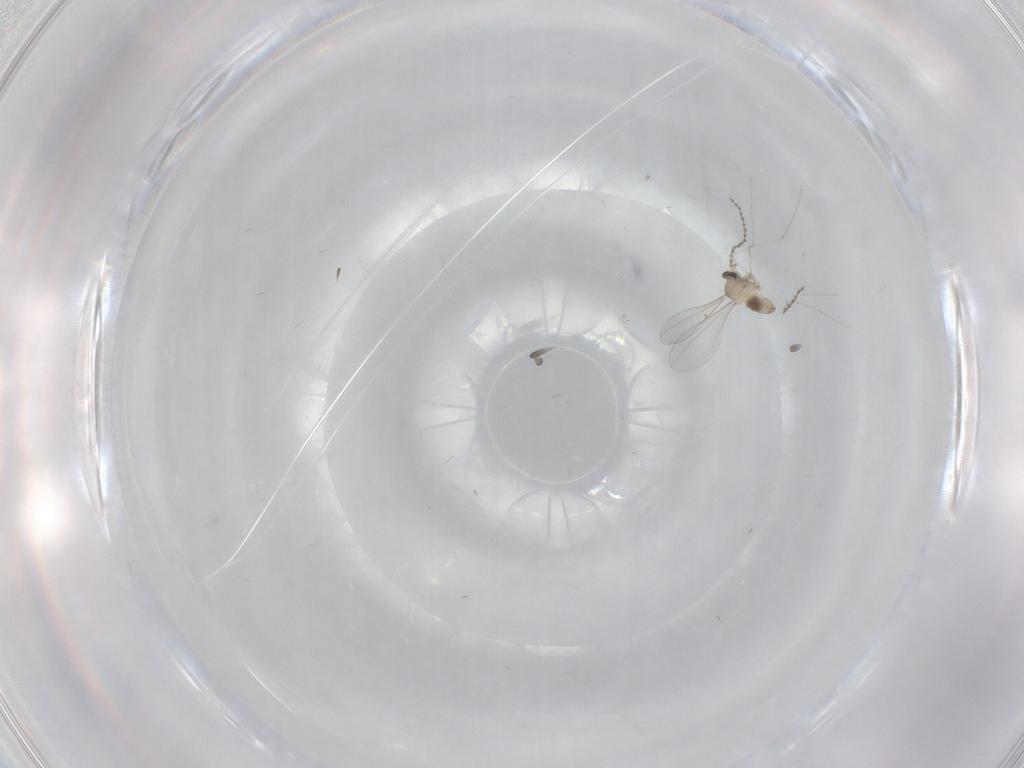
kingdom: Animalia
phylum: Arthropoda
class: Insecta
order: Diptera
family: Cecidomyiidae
